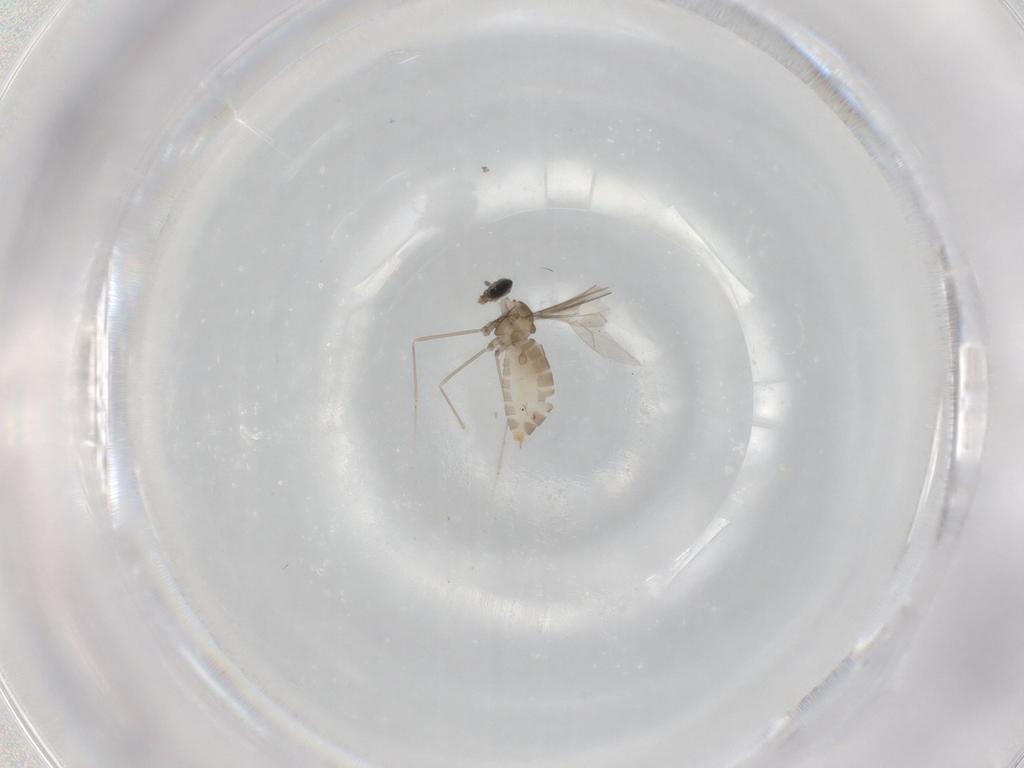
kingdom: Animalia
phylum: Arthropoda
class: Insecta
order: Diptera
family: Cecidomyiidae
